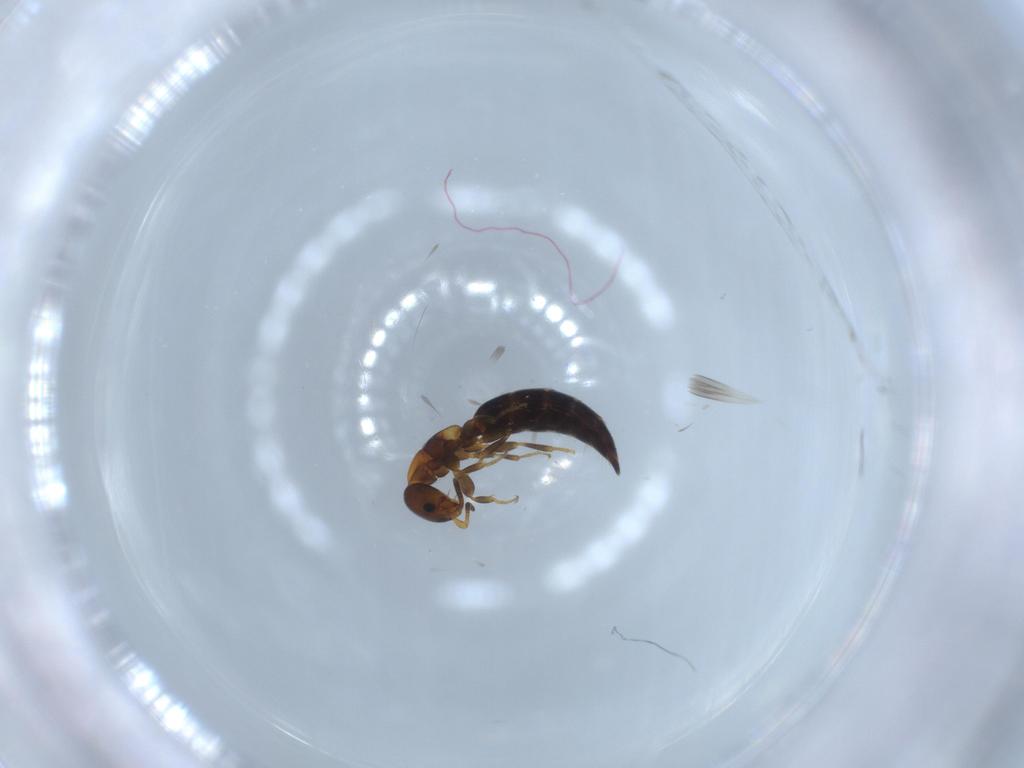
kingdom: Animalia
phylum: Arthropoda
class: Insecta
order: Hymenoptera
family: Bethylidae
